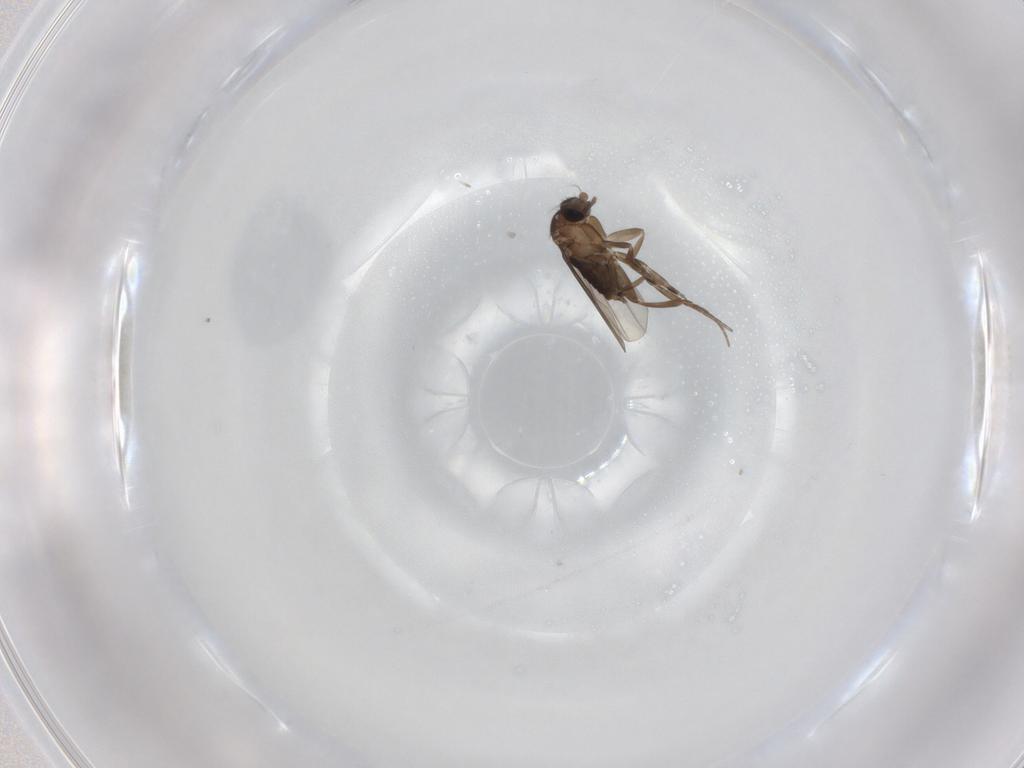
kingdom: Animalia
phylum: Arthropoda
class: Insecta
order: Diptera
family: Phoridae
